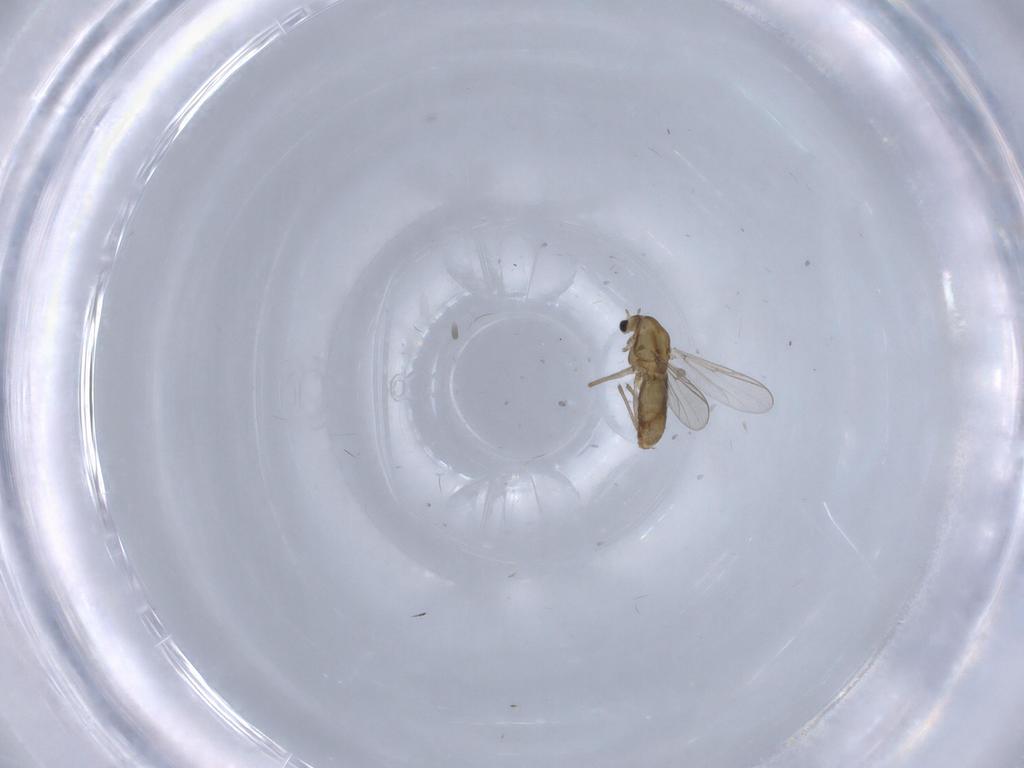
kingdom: Animalia
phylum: Arthropoda
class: Insecta
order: Diptera
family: Chironomidae
